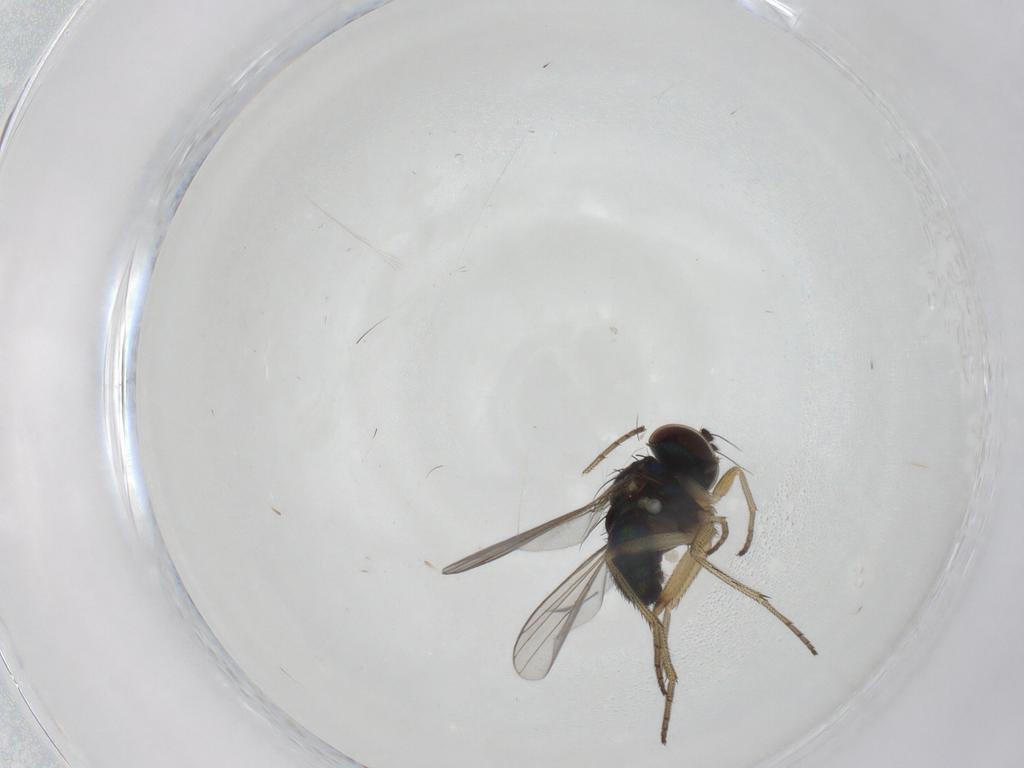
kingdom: Animalia
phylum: Arthropoda
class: Insecta
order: Diptera
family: Dolichopodidae
